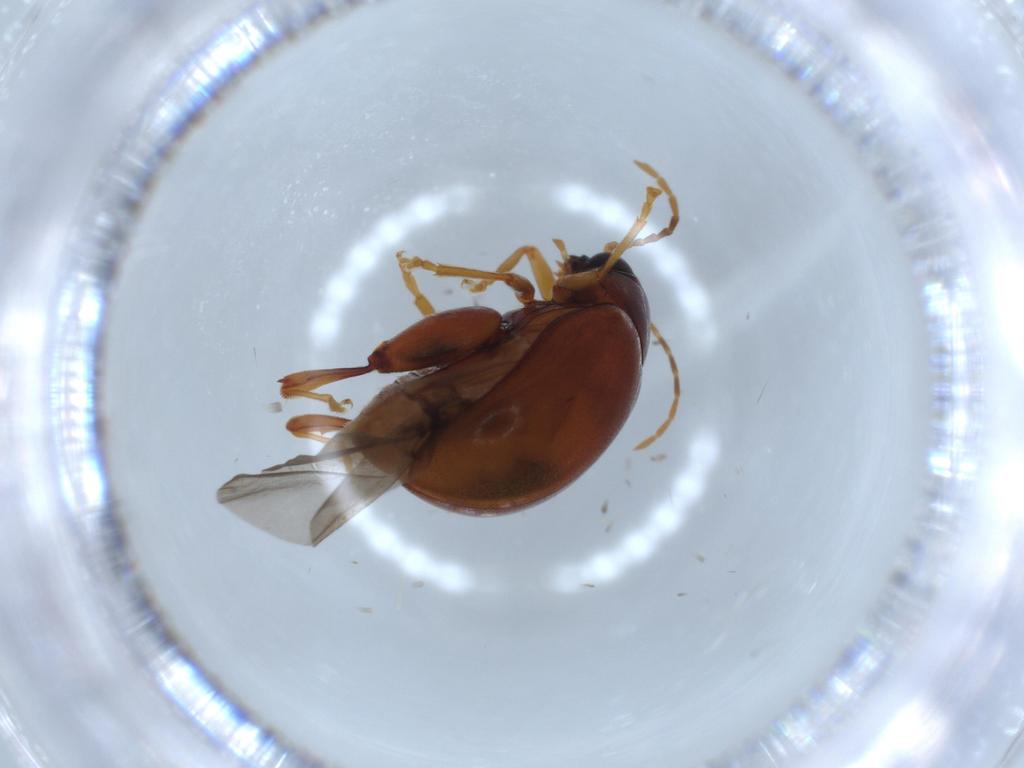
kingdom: Animalia
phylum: Arthropoda
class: Insecta
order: Coleoptera
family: Chrysomelidae
